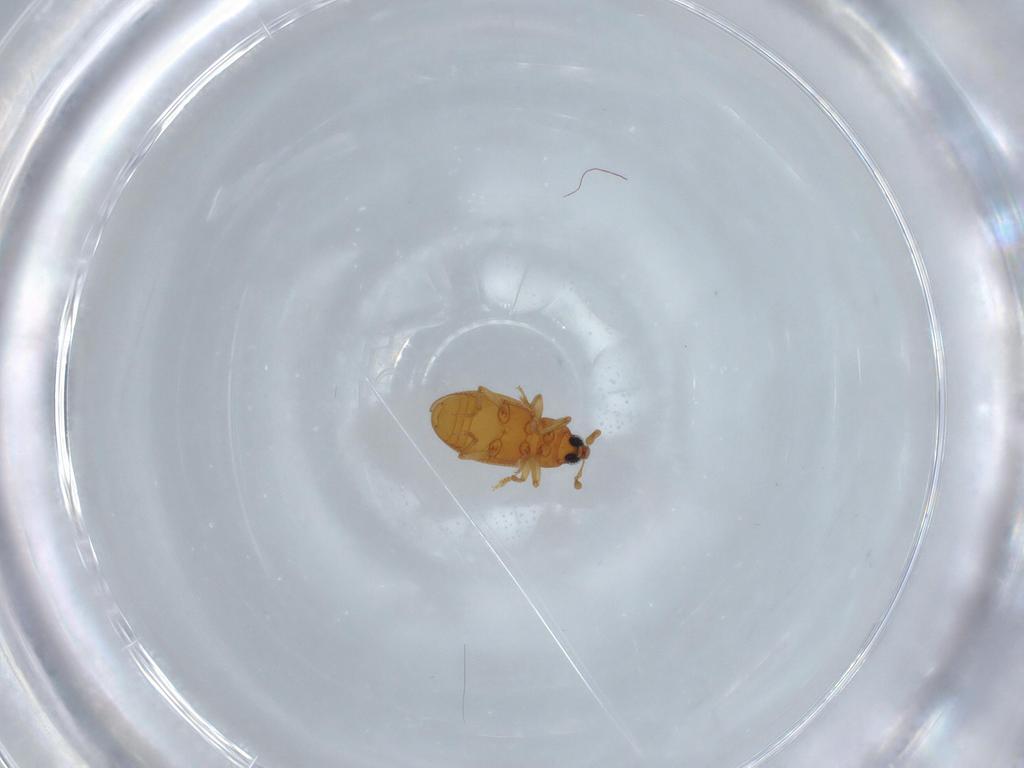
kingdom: Animalia
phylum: Arthropoda
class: Insecta
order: Coleoptera
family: Curculionidae
